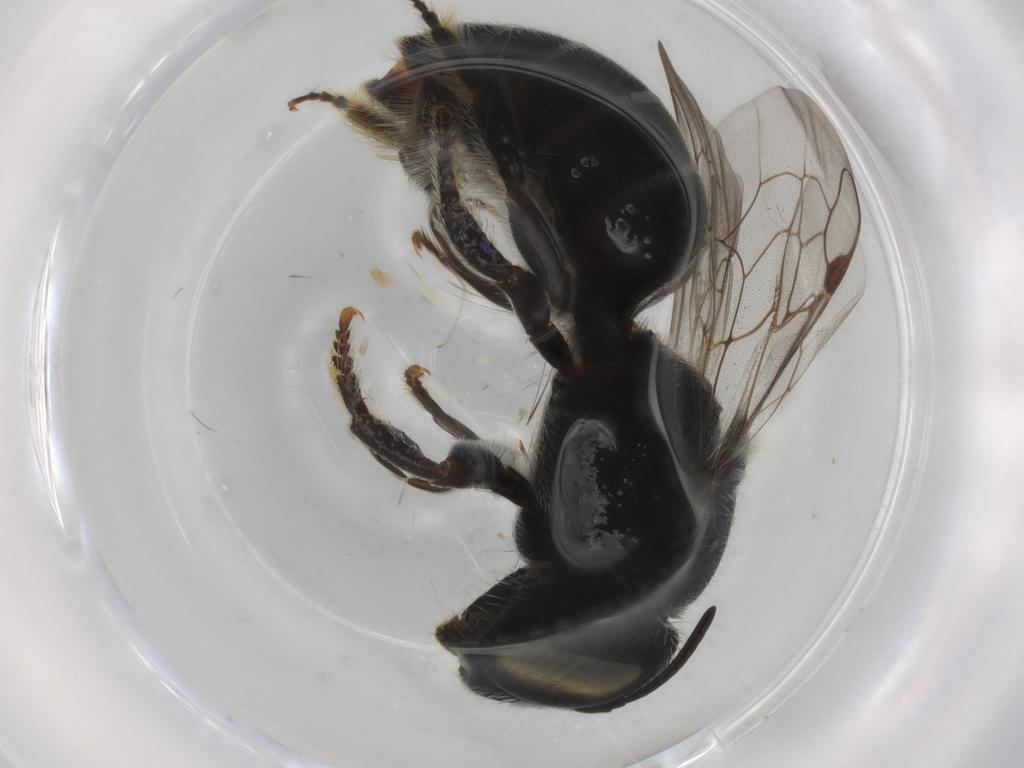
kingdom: Animalia
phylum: Arthropoda
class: Insecta
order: Hymenoptera
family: Megachilidae
